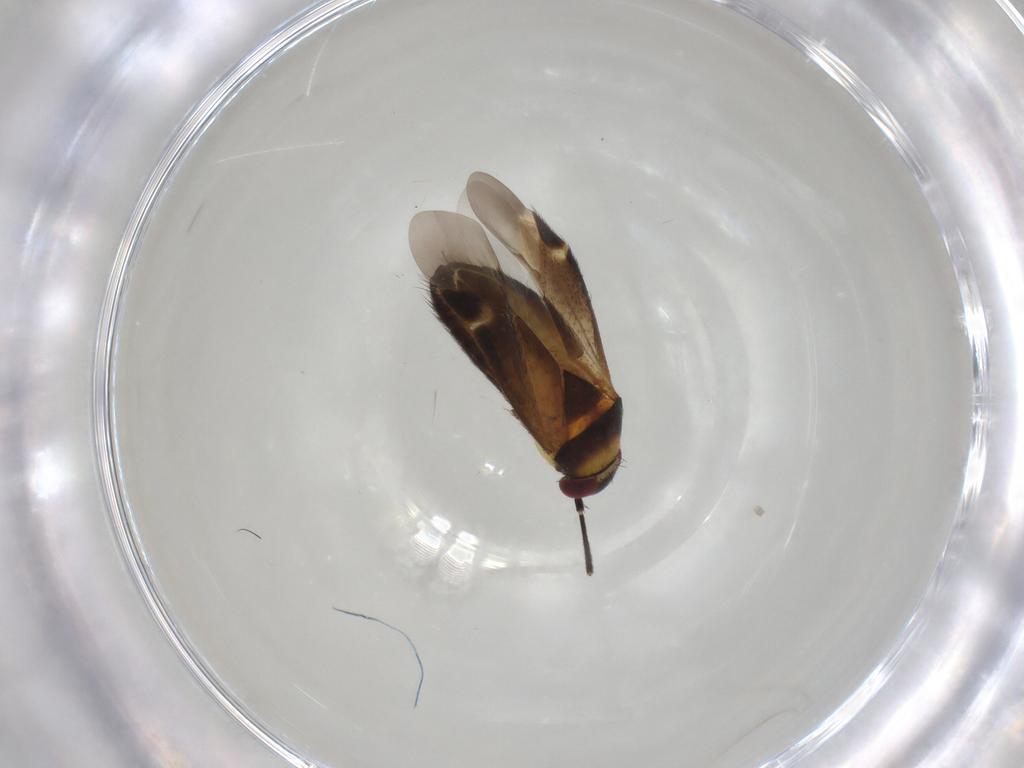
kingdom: Animalia
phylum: Arthropoda
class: Insecta
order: Hemiptera
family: Miridae
